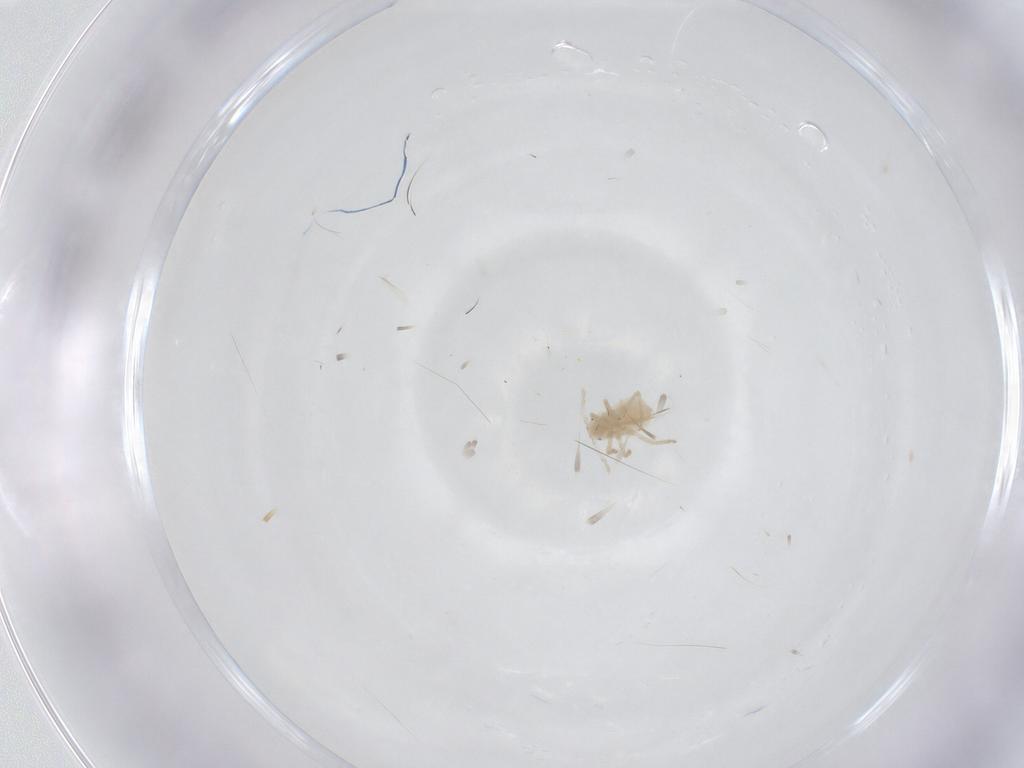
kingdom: Animalia
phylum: Arthropoda
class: Insecta
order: Hemiptera
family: Aphididae
